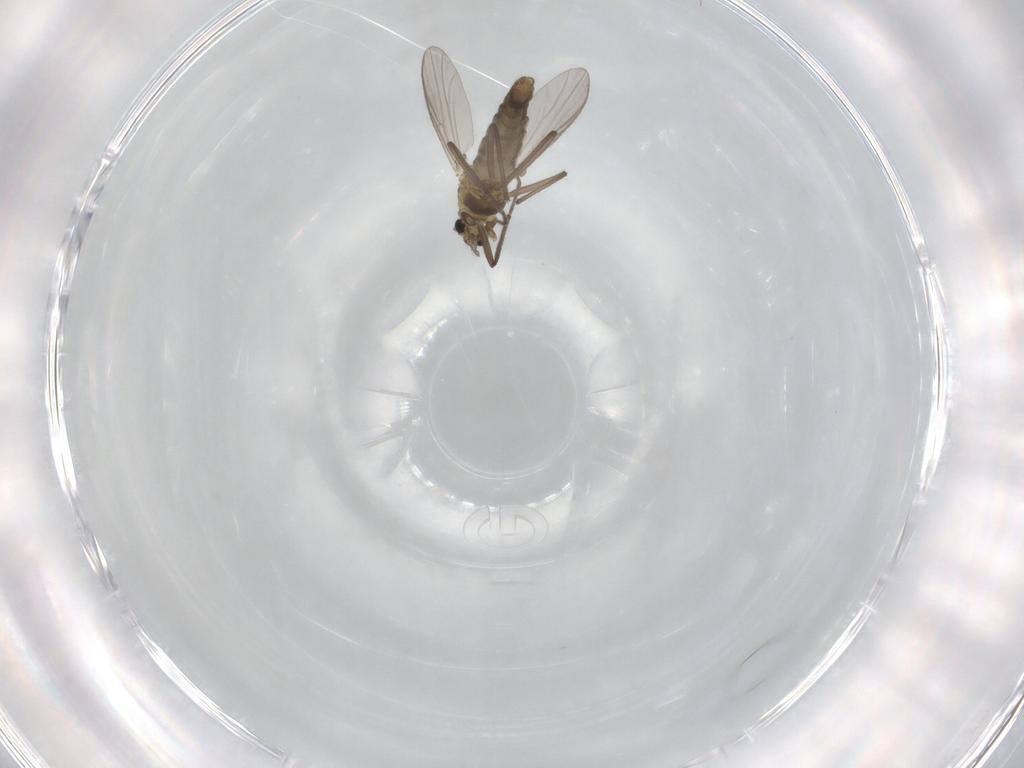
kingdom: Animalia
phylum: Arthropoda
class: Insecta
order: Diptera
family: Chironomidae
